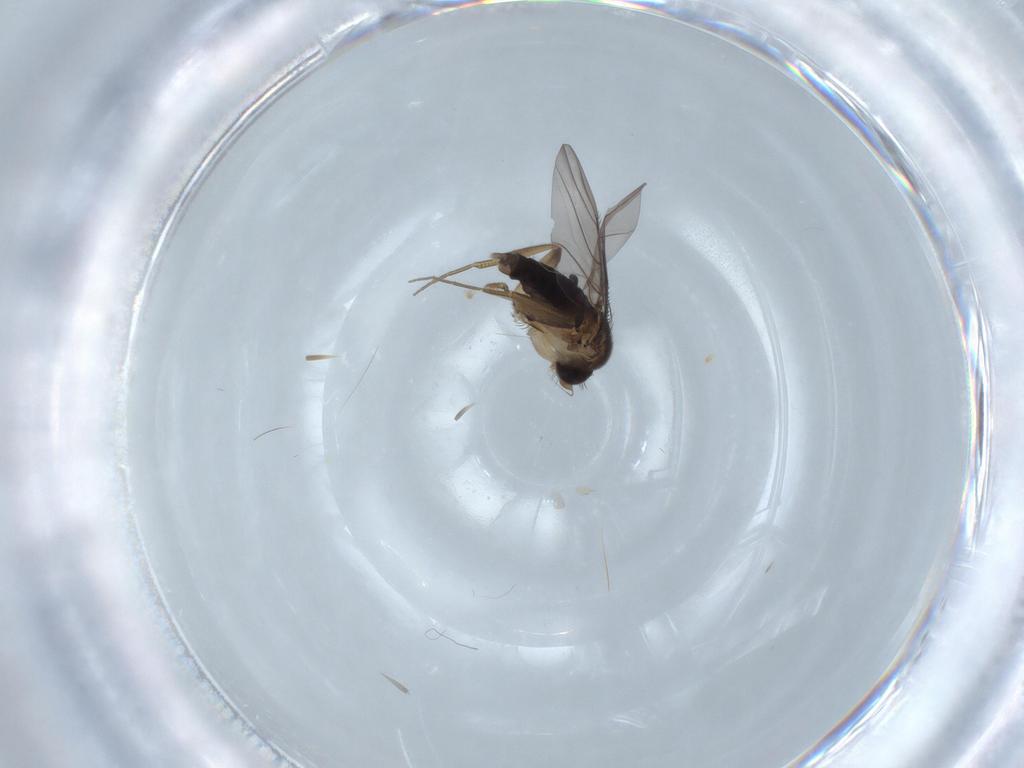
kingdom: Animalia
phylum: Arthropoda
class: Insecta
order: Diptera
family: Phoridae
